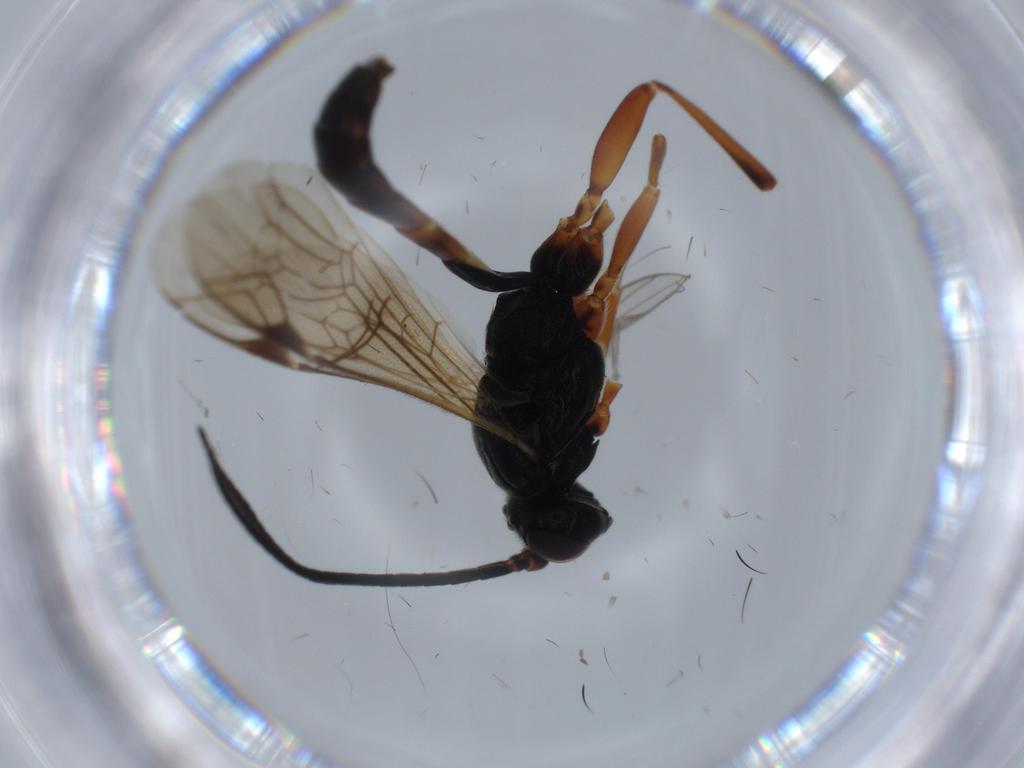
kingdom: Animalia
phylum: Arthropoda
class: Insecta
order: Hymenoptera
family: Ichneumonidae
